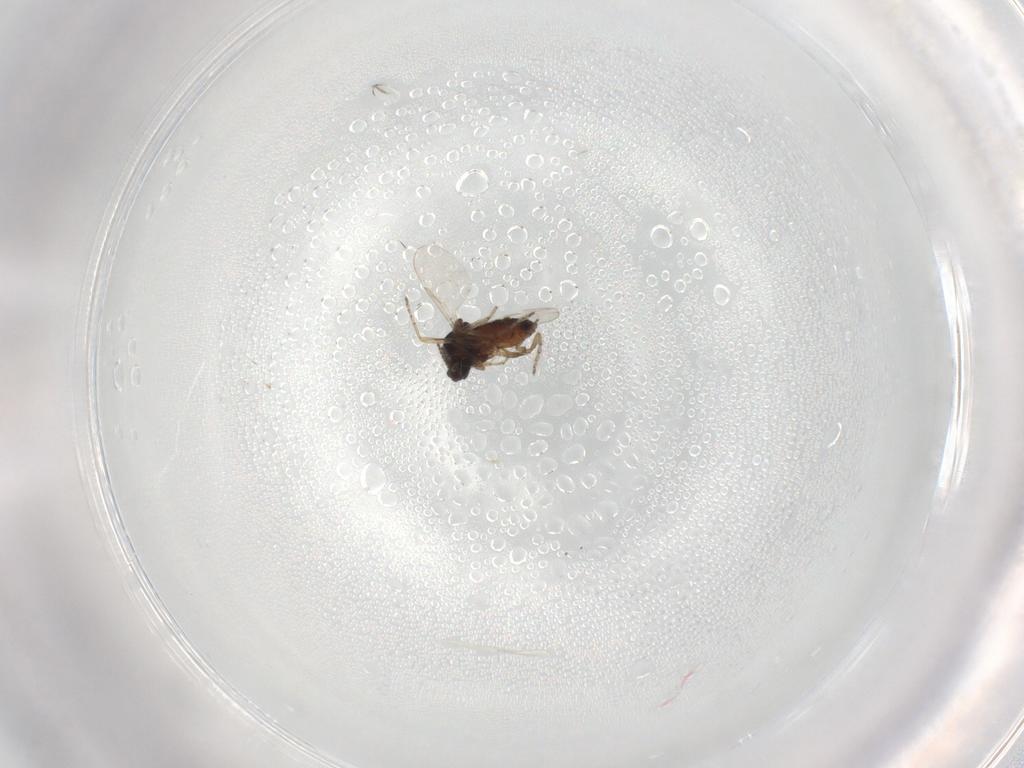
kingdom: Animalia
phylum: Arthropoda
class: Insecta
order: Diptera
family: Ceratopogonidae
